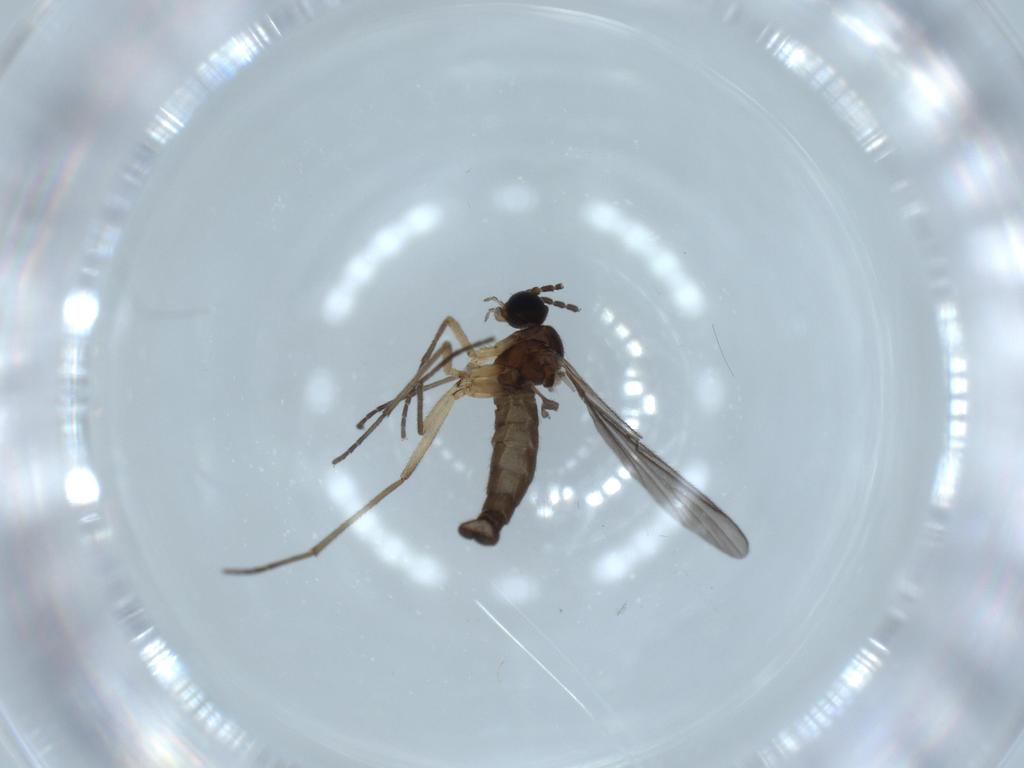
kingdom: Animalia
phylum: Arthropoda
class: Insecta
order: Diptera
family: Sciaridae
